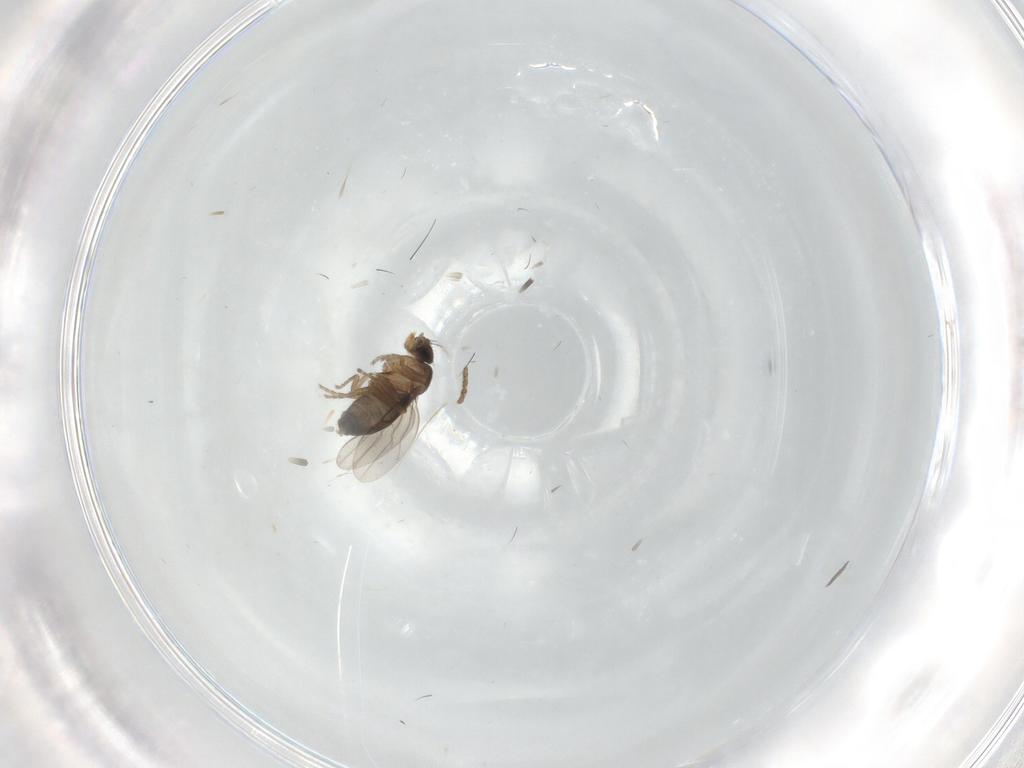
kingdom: Animalia
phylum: Arthropoda
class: Insecta
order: Diptera
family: Psychodidae
